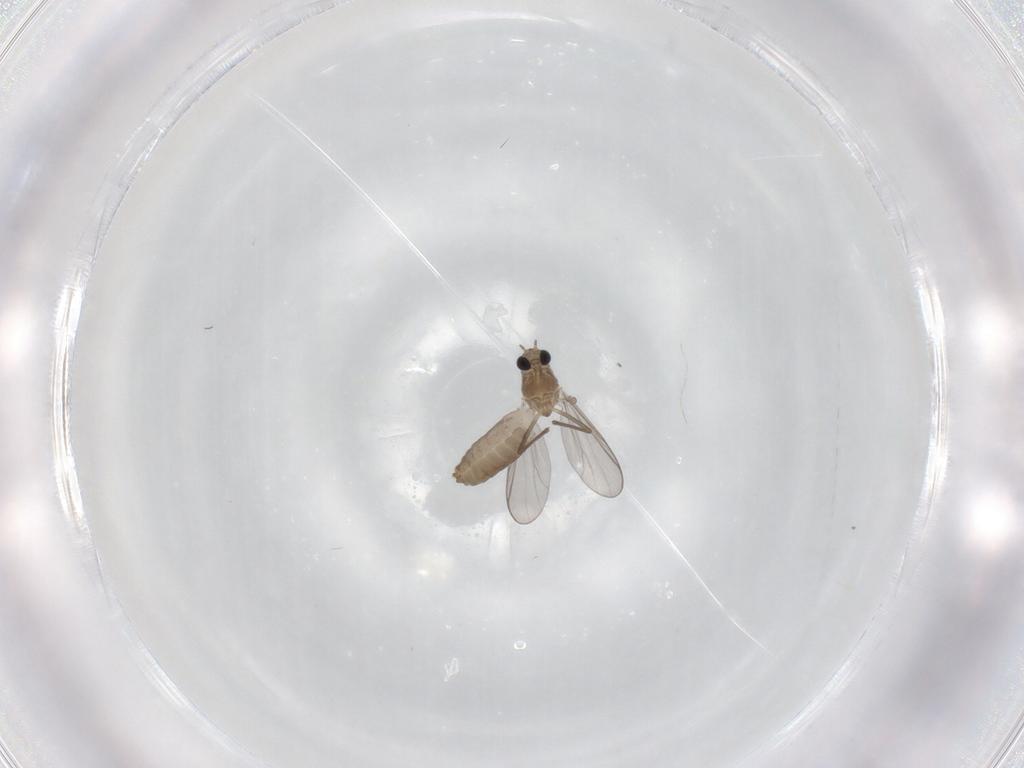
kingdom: Animalia
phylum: Arthropoda
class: Insecta
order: Diptera
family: Chironomidae
